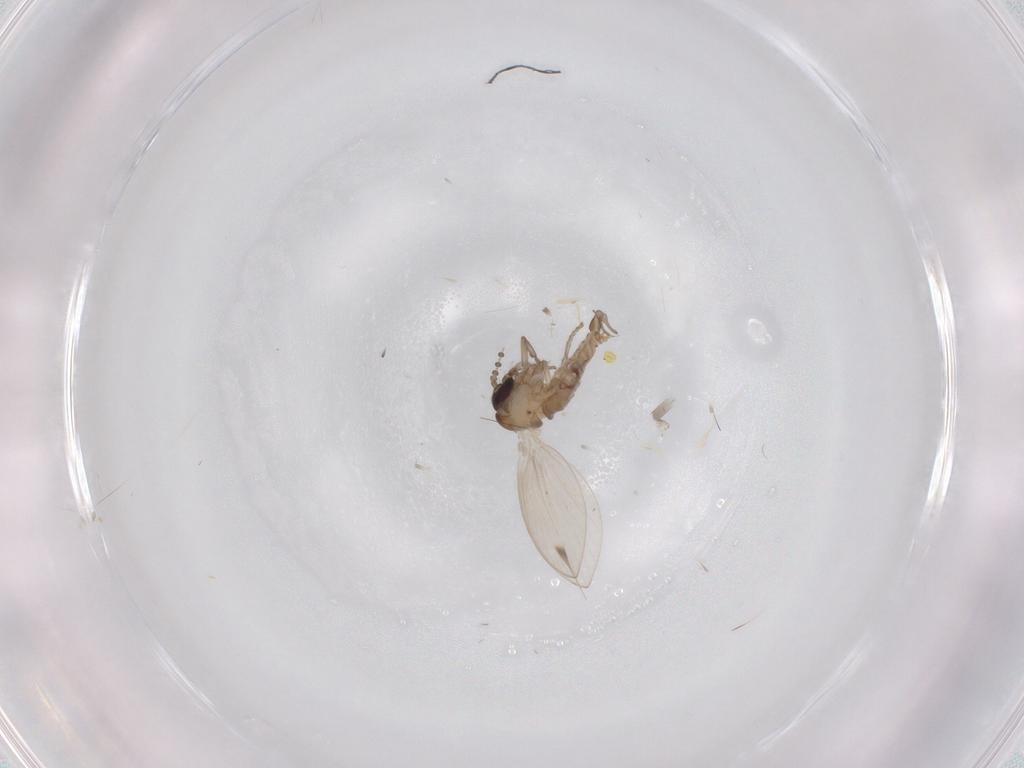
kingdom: Animalia
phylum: Arthropoda
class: Insecta
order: Diptera
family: Psychodidae
